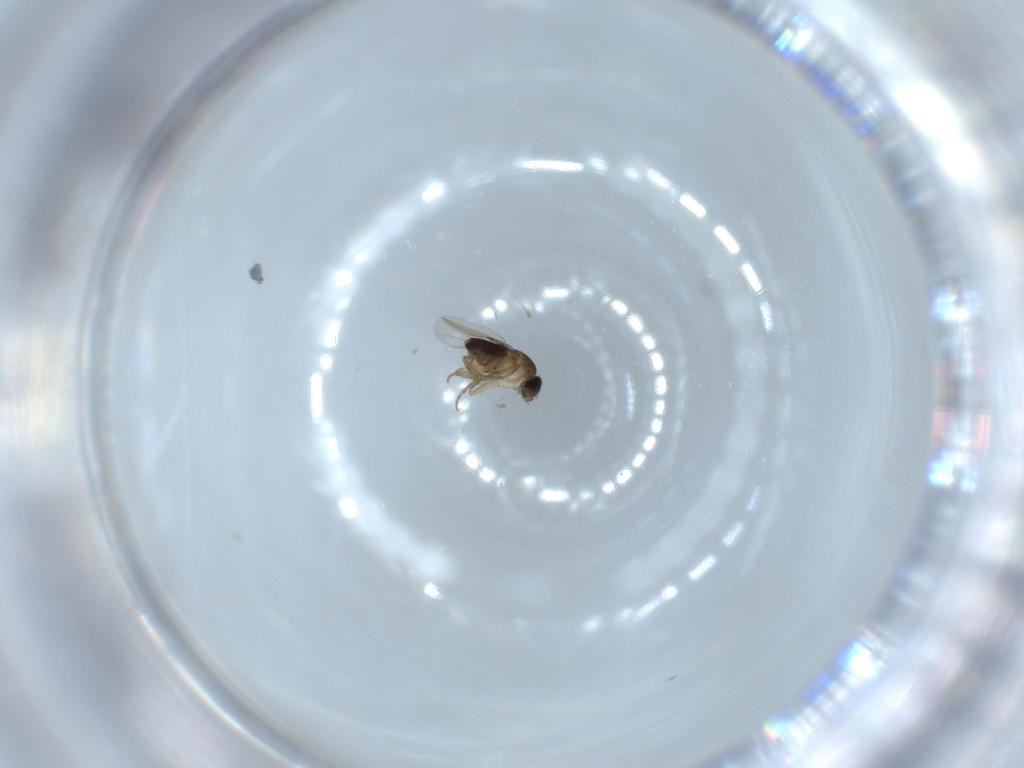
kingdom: Animalia
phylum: Arthropoda
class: Insecta
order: Diptera
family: Phoridae
